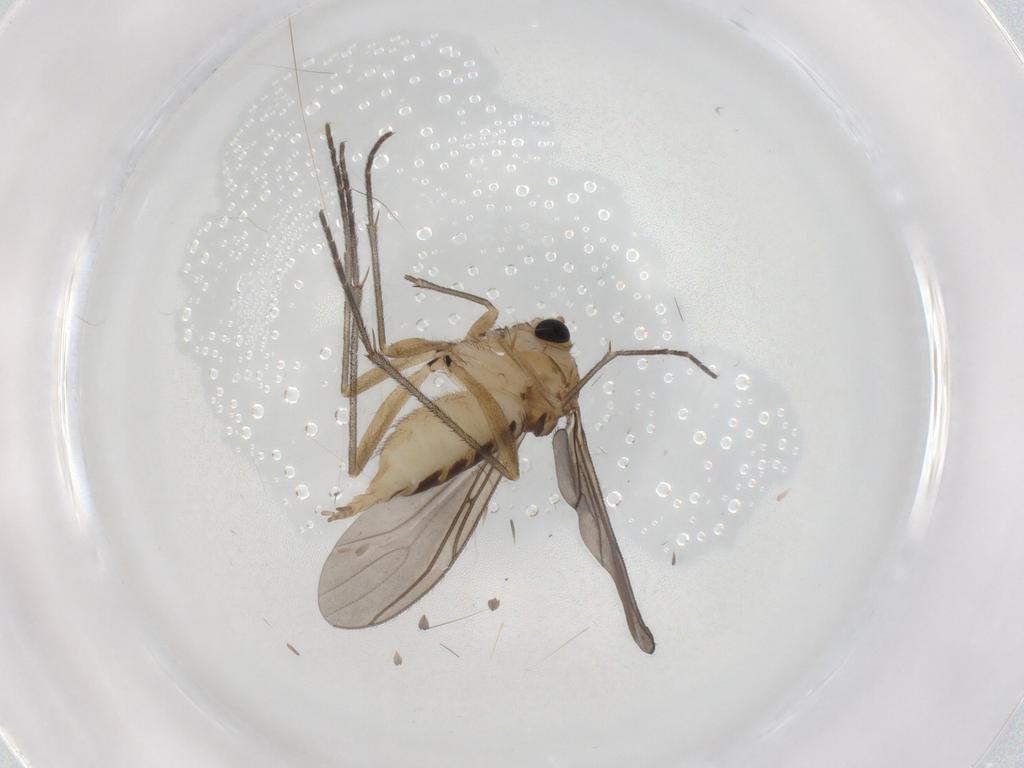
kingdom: Animalia
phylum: Arthropoda
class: Insecta
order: Diptera
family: Sciaridae
